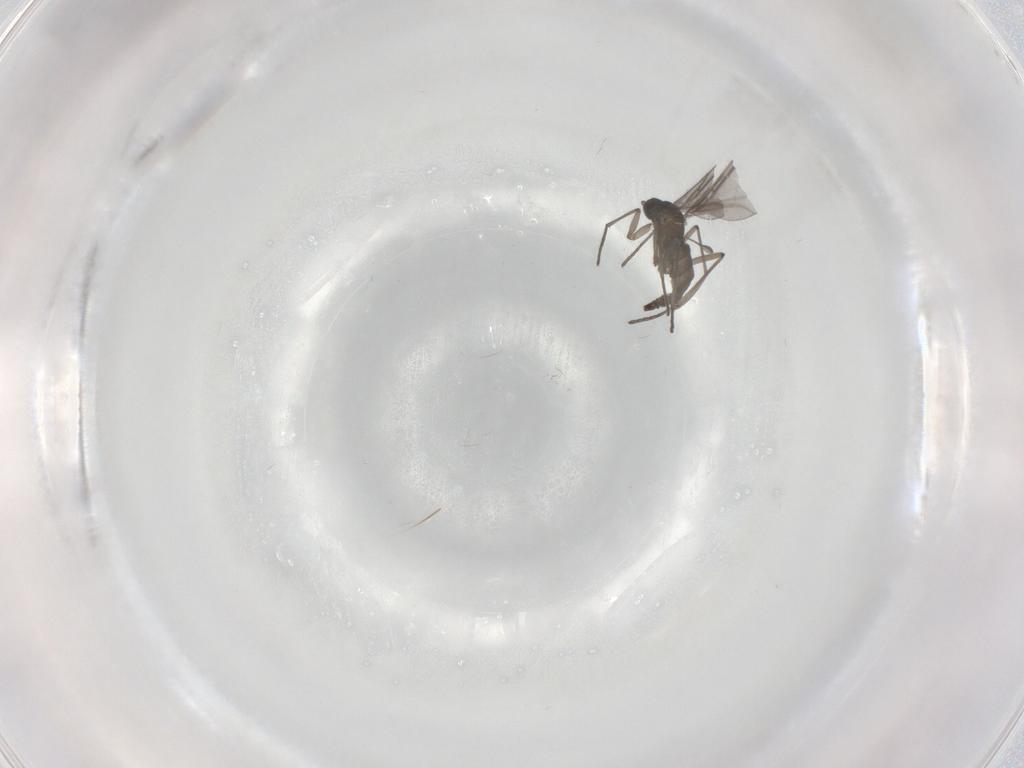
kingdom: Animalia
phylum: Arthropoda
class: Insecta
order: Diptera
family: Sciaridae
